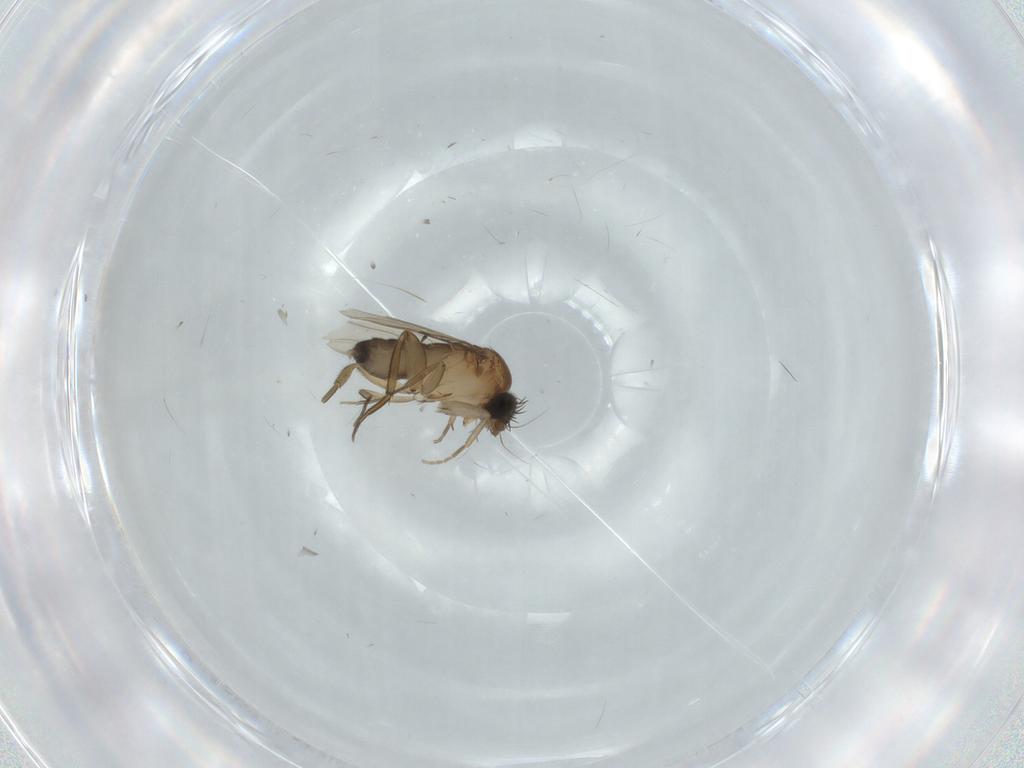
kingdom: Animalia
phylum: Arthropoda
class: Insecta
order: Diptera
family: Phoridae
